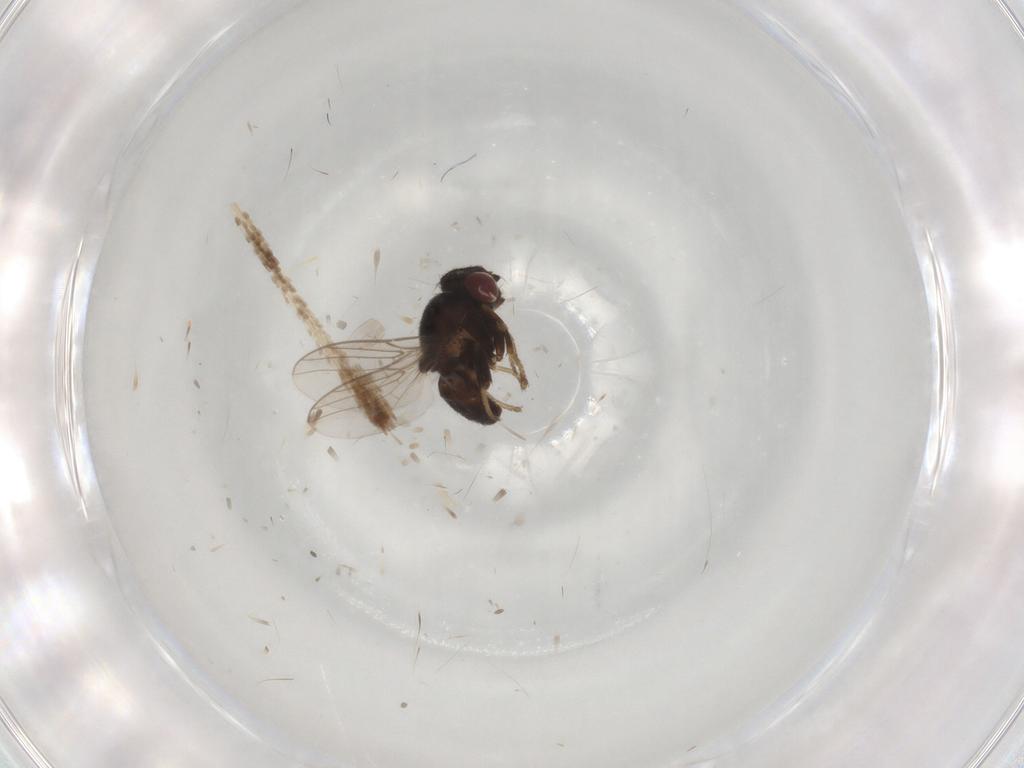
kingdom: Animalia
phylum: Arthropoda
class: Insecta
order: Diptera
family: Chloropidae
